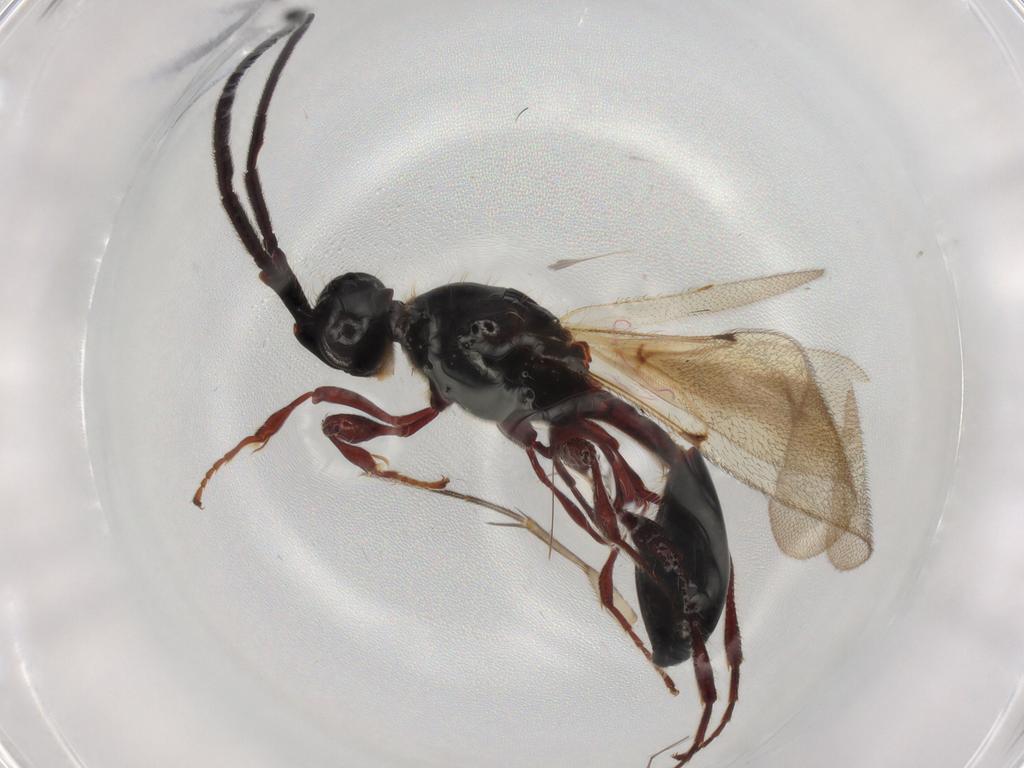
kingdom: Animalia
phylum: Arthropoda
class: Insecta
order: Hymenoptera
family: Diapriidae
